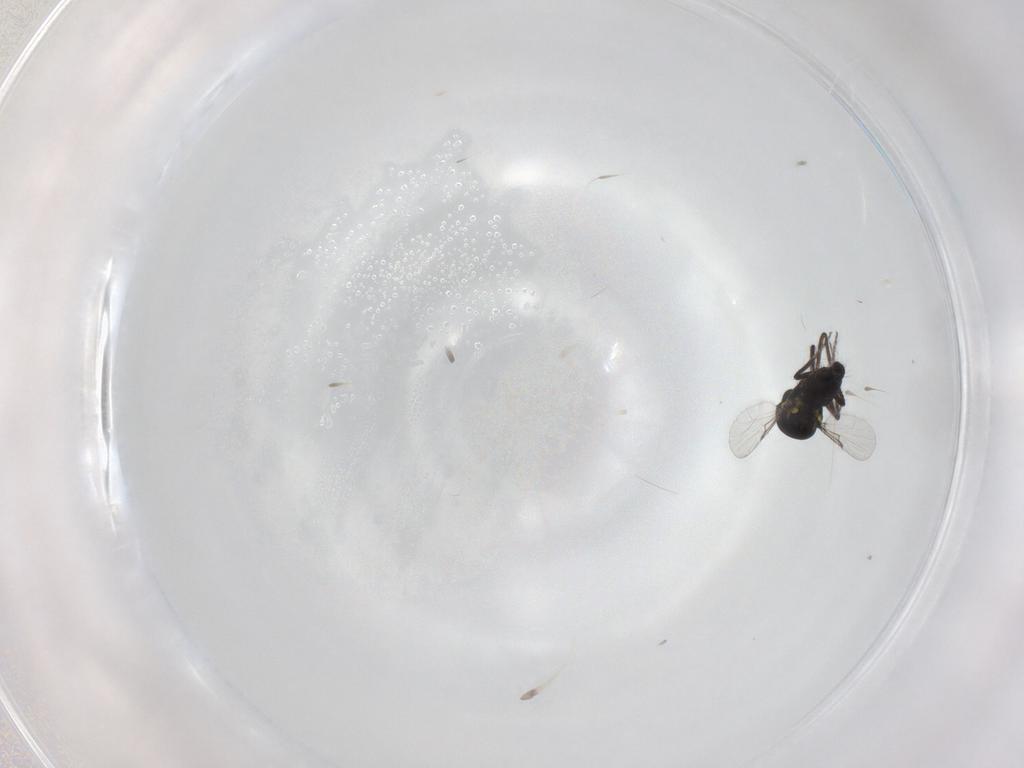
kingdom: Animalia
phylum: Arthropoda
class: Insecta
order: Diptera
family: Ceratopogonidae
